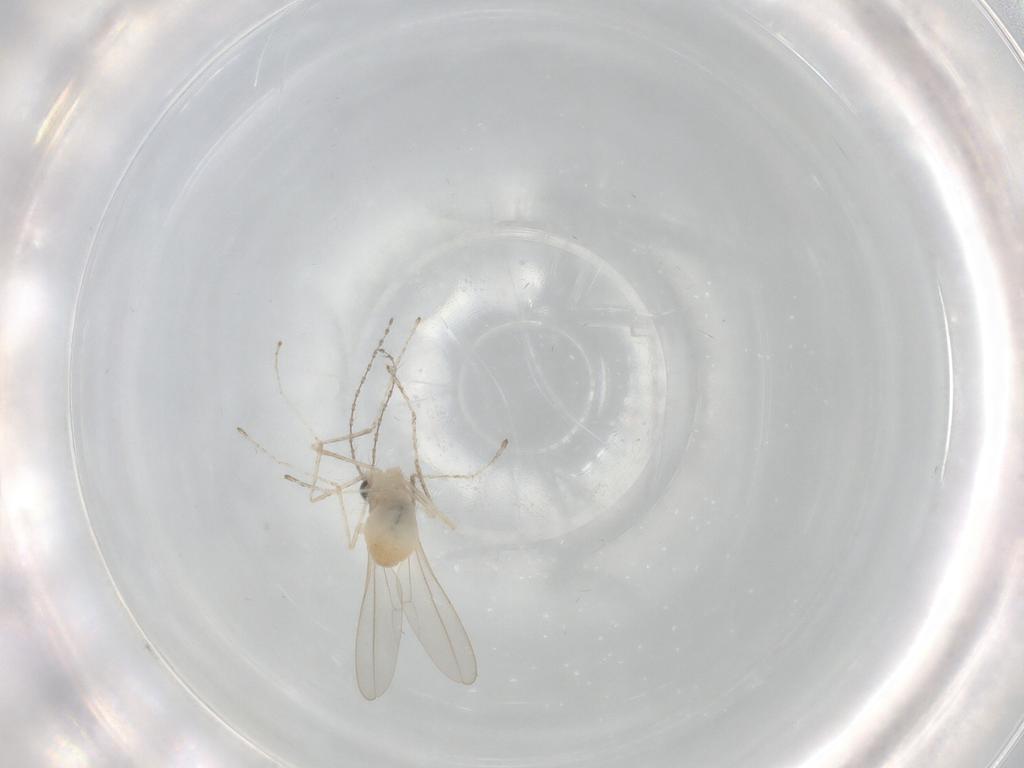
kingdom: Animalia
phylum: Arthropoda
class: Insecta
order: Diptera
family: Cecidomyiidae
